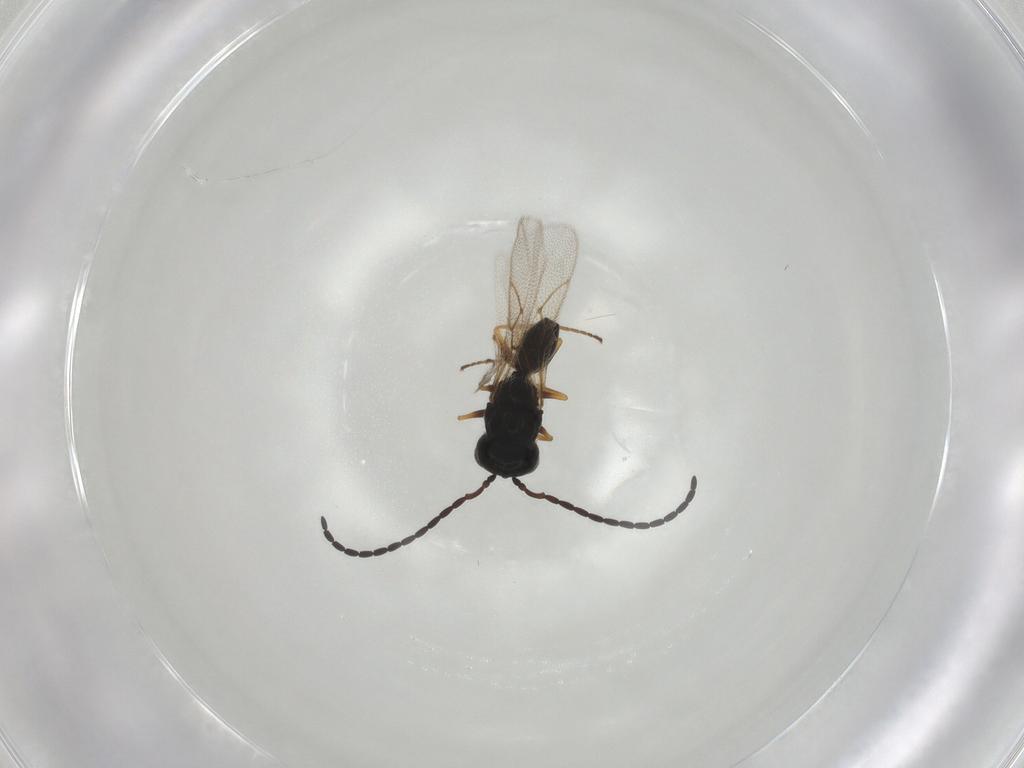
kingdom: Animalia
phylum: Arthropoda
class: Insecta
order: Hymenoptera
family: Figitidae
